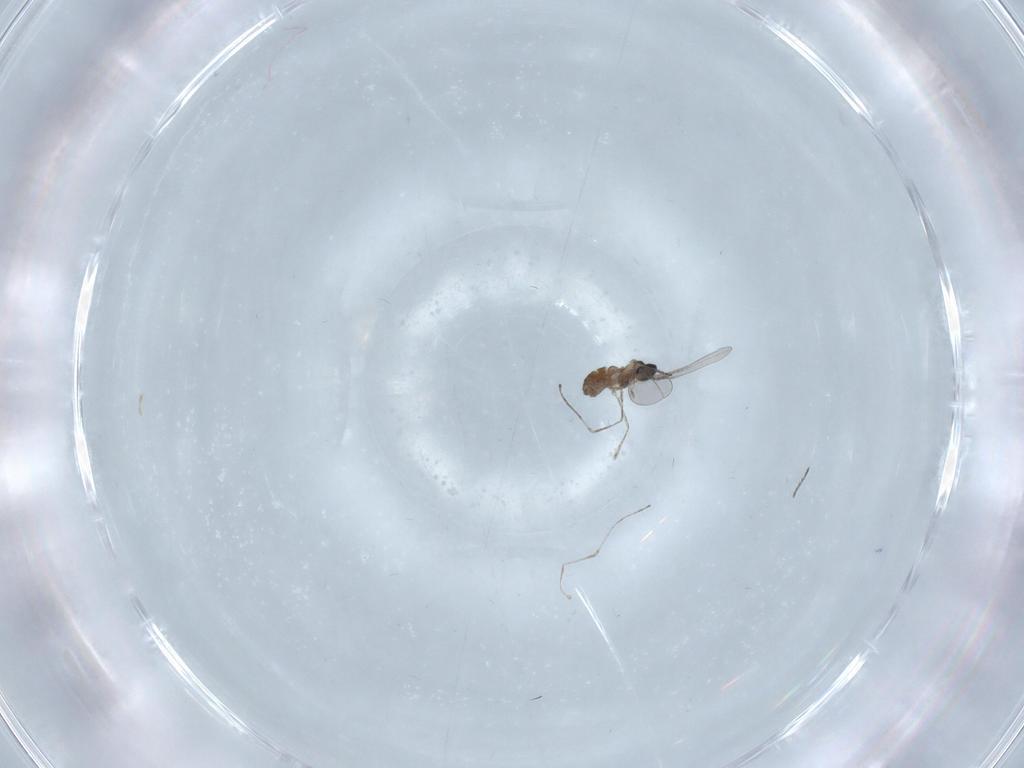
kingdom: Animalia
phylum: Arthropoda
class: Insecta
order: Diptera
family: Cecidomyiidae
